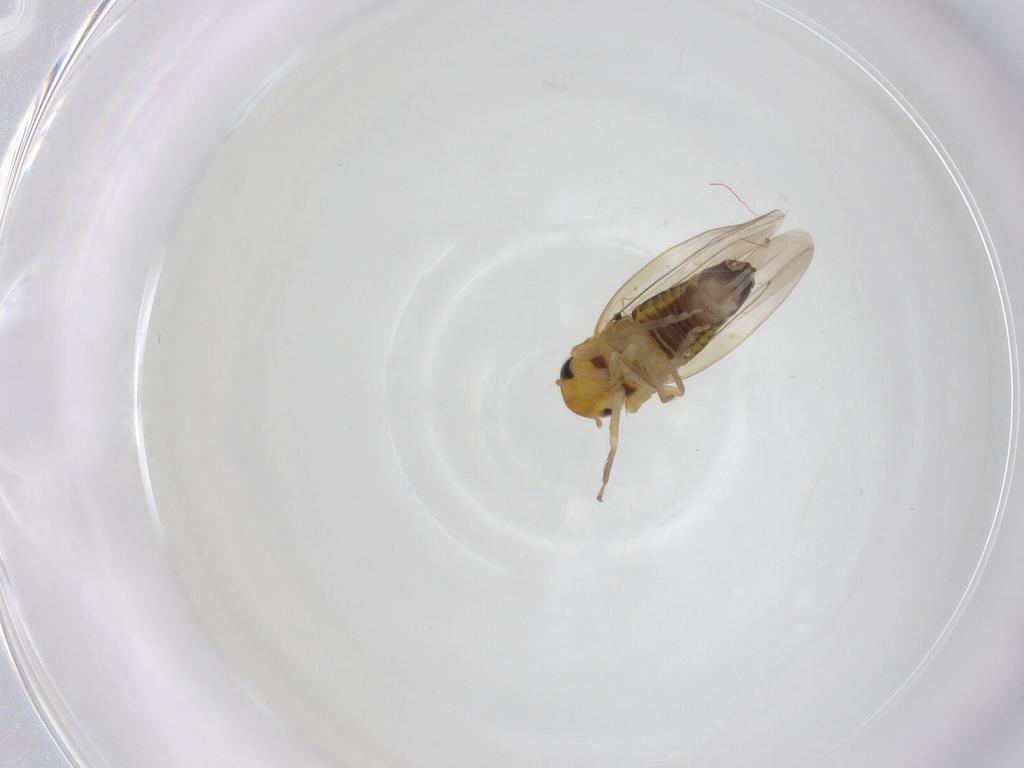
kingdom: Animalia
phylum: Arthropoda
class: Insecta
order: Hemiptera
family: Cicadellidae
